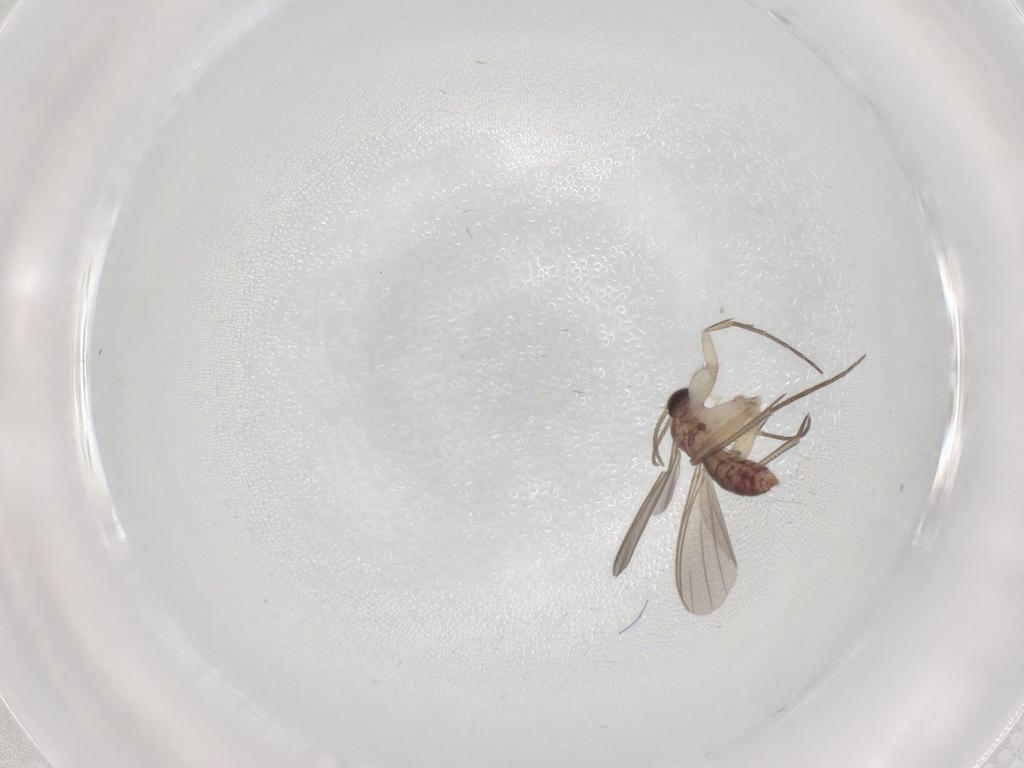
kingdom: Animalia
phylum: Arthropoda
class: Insecta
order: Diptera
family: Mycetophilidae
